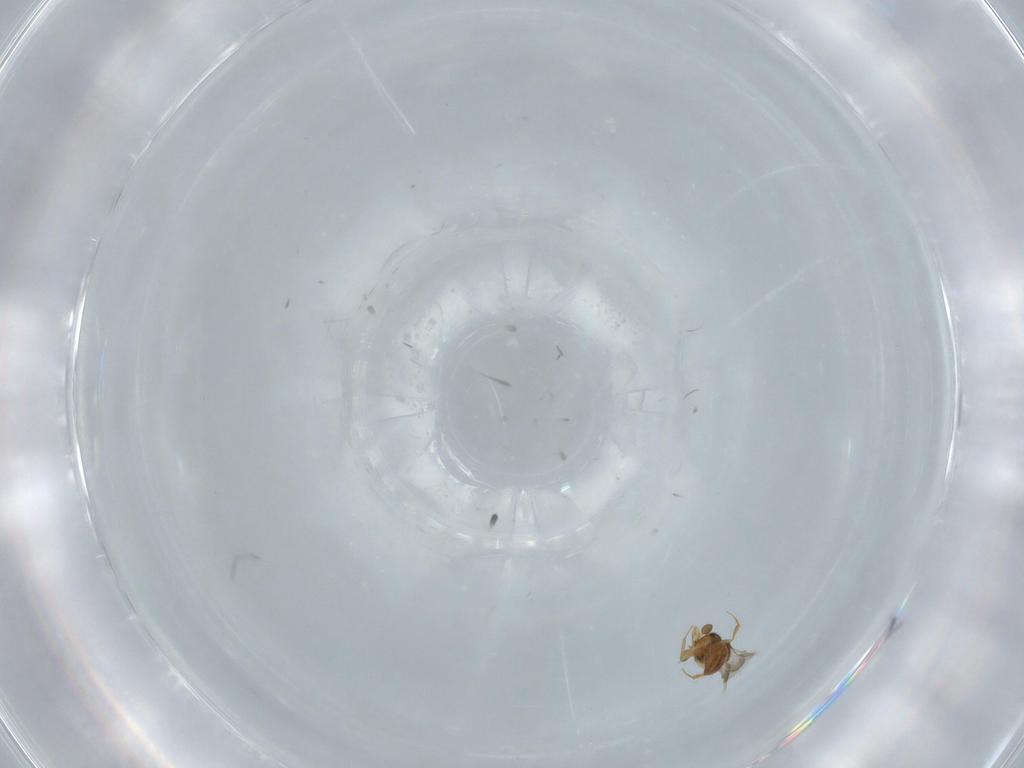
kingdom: Animalia
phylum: Arthropoda
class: Insecta
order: Hymenoptera
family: Scelionidae
